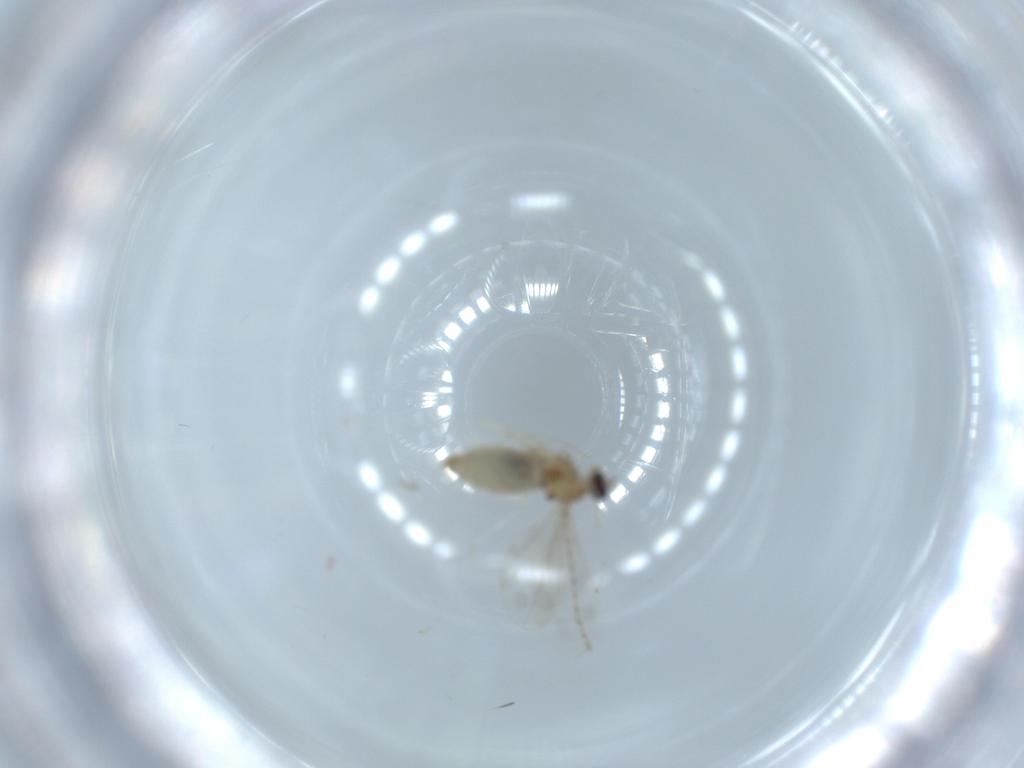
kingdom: Animalia
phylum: Arthropoda
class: Insecta
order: Diptera
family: Cecidomyiidae
